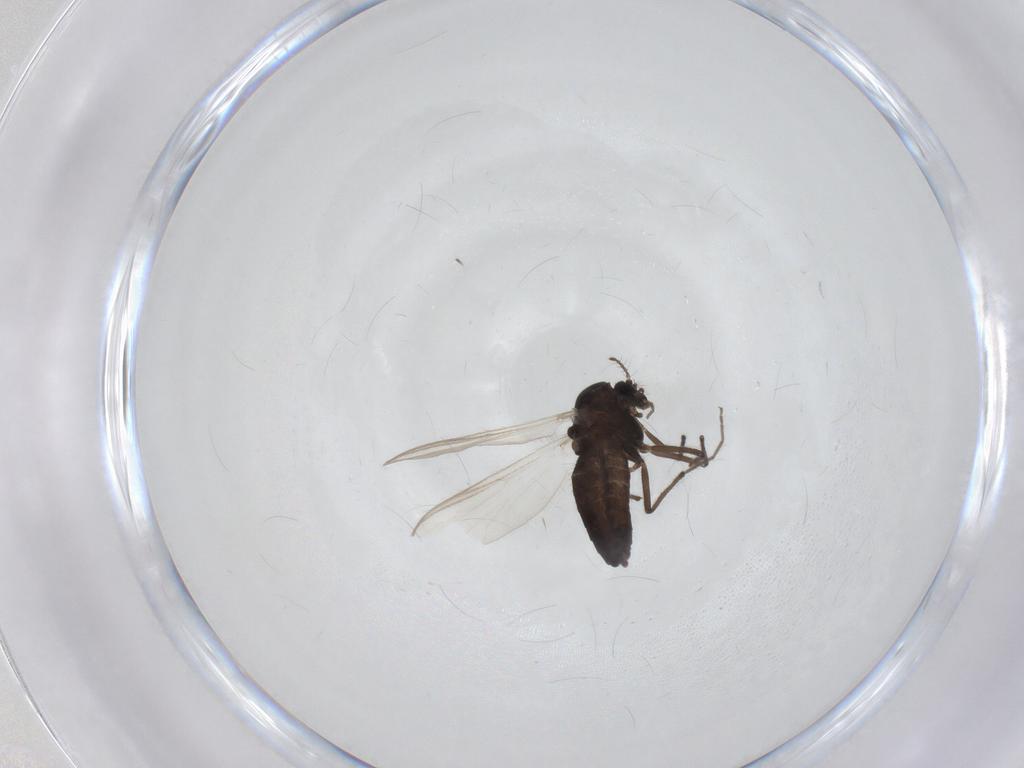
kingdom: Animalia
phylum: Arthropoda
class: Insecta
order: Diptera
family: Chironomidae
